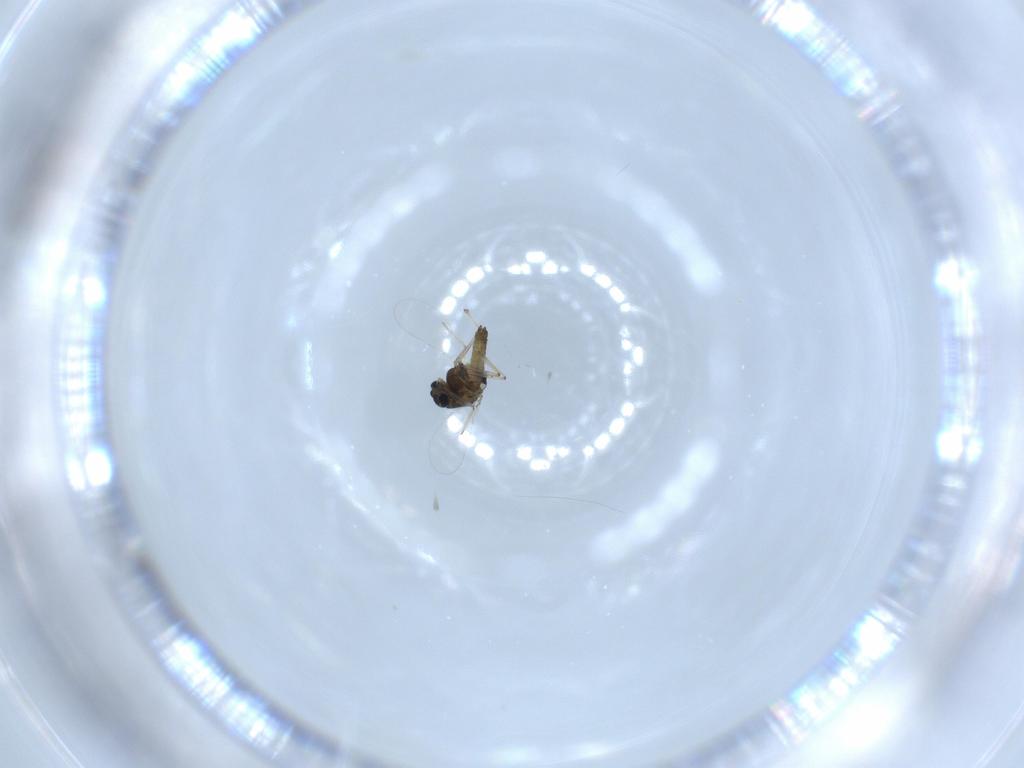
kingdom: Animalia
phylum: Arthropoda
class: Insecta
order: Diptera
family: Chironomidae
